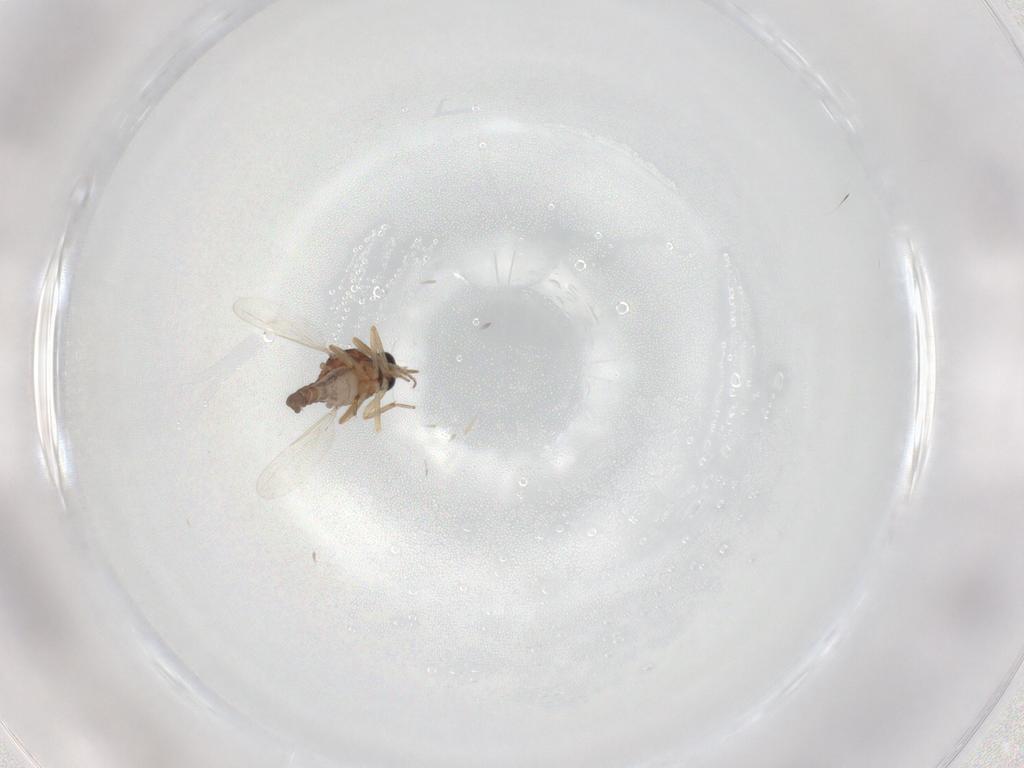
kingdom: Animalia
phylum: Arthropoda
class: Insecta
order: Diptera
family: Ceratopogonidae
